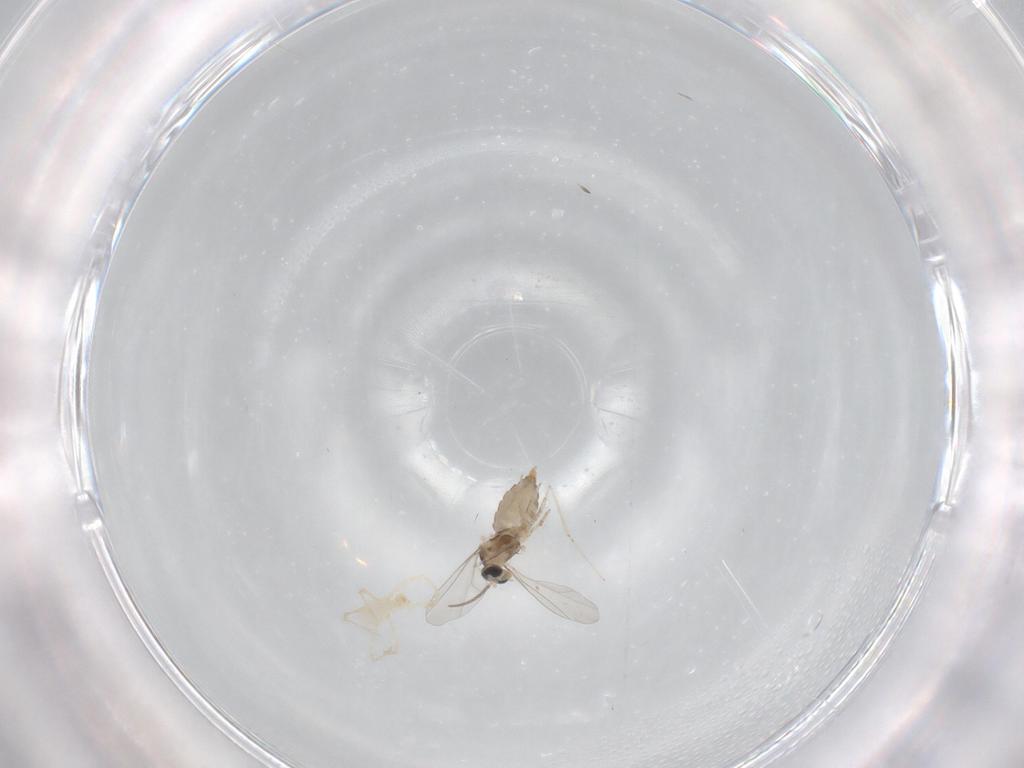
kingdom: Animalia
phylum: Arthropoda
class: Insecta
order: Diptera
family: Cecidomyiidae
